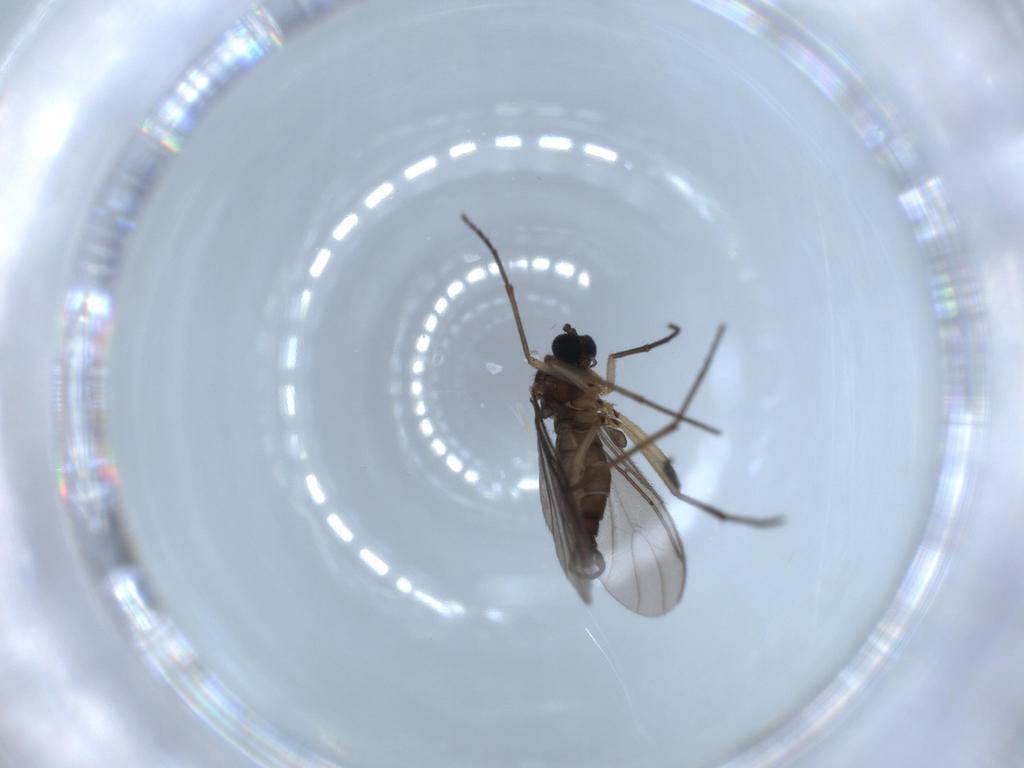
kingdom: Animalia
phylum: Arthropoda
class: Insecta
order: Diptera
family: Sciaridae
